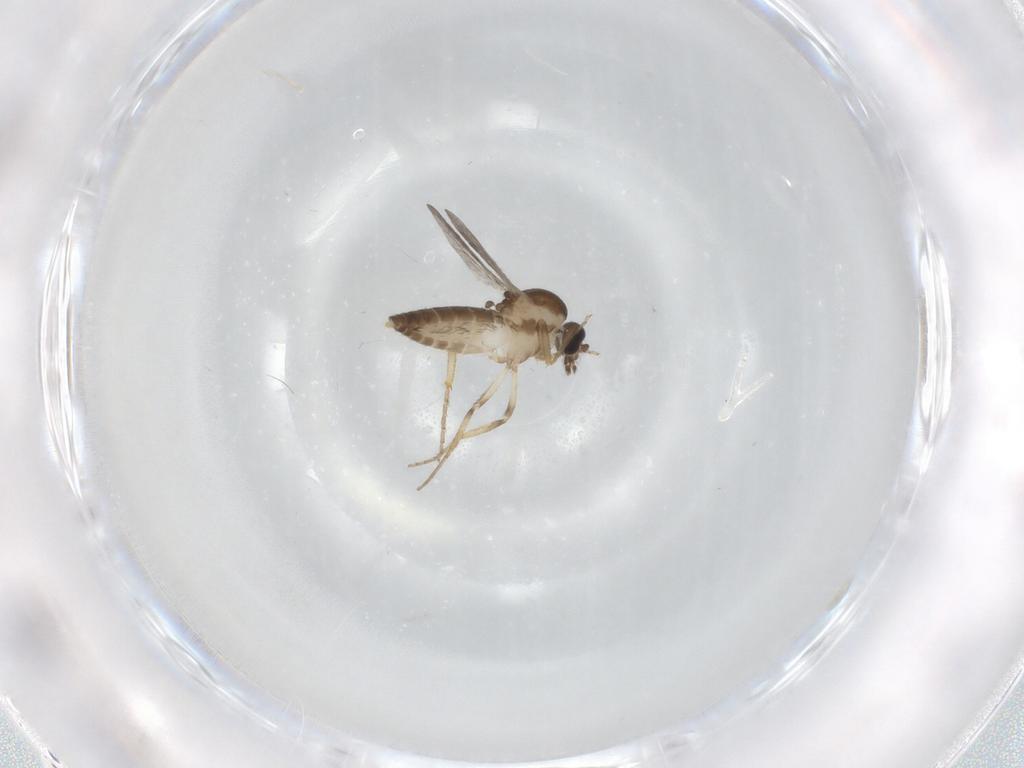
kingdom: Animalia
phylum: Arthropoda
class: Insecta
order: Diptera
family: Ceratopogonidae
